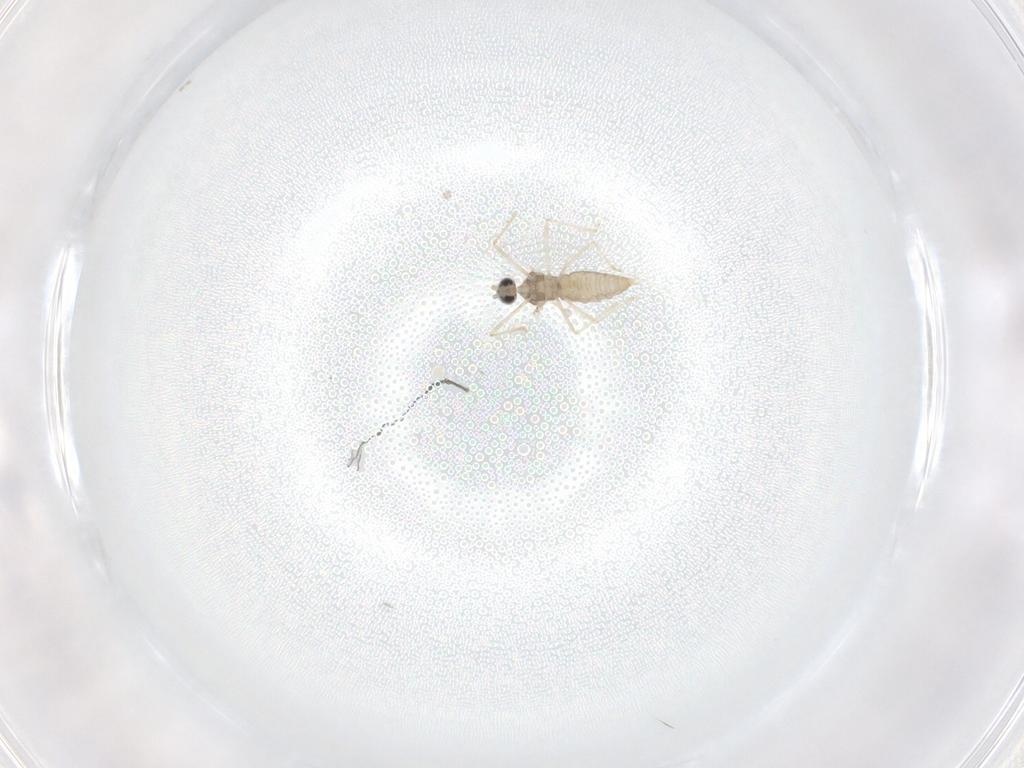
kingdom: Animalia
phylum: Arthropoda
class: Insecta
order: Diptera
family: Cecidomyiidae
